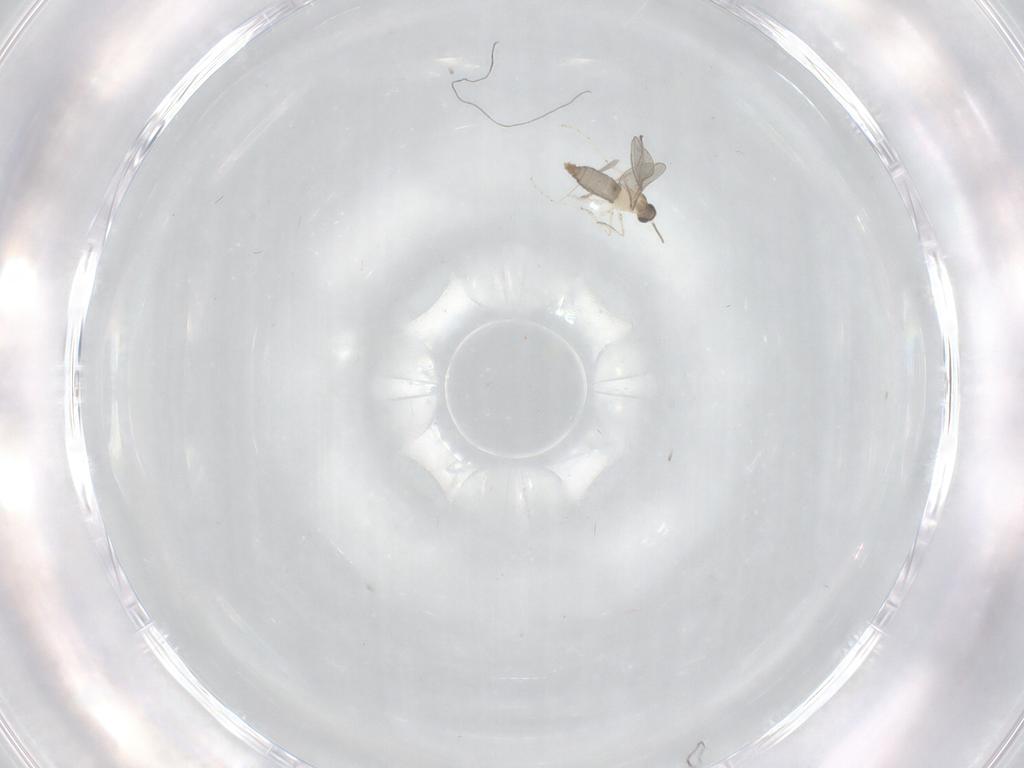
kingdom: Animalia
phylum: Arthropoda
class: Insecta
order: Diptera
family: Cecidomyiidae
